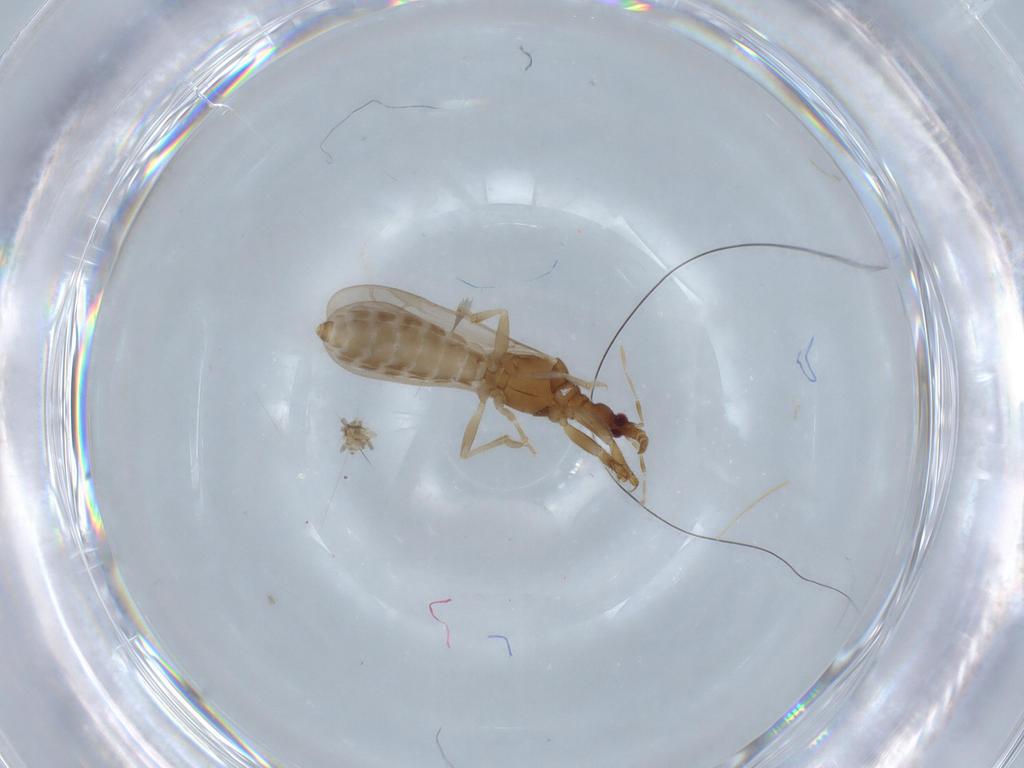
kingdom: Animalia
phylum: Arthropoda
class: Insecta
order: Hemiptera
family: Enicocephalidae
